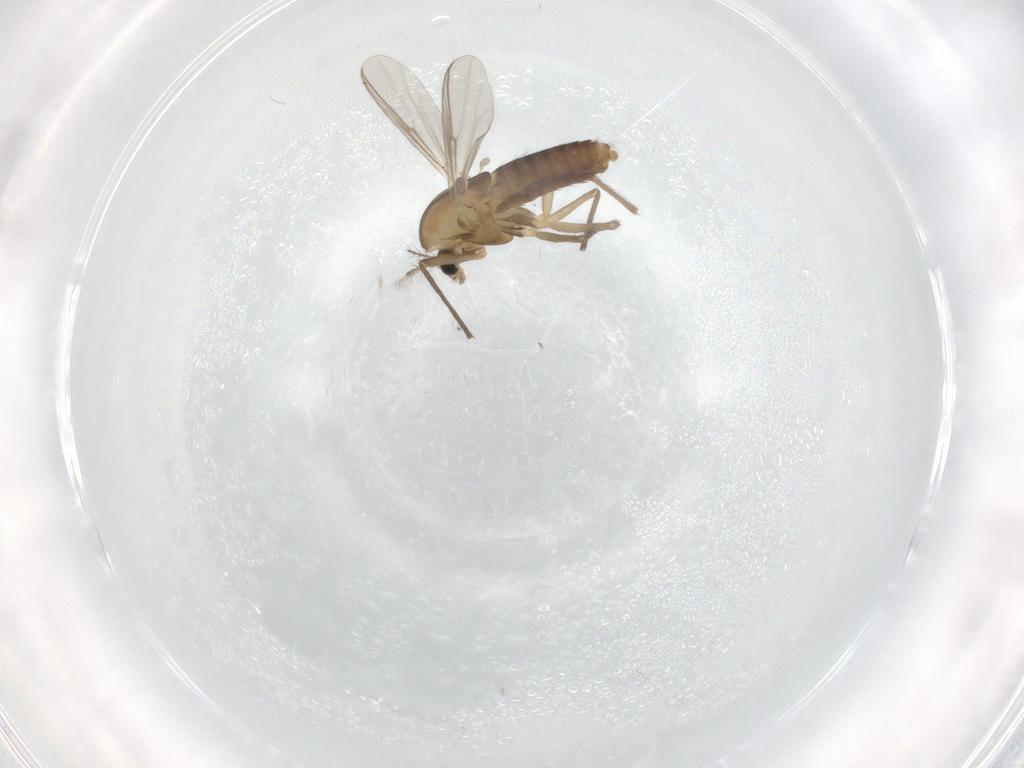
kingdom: Animalia
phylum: Arthropoda
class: Insecta
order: Diptera
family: Chironomidae
